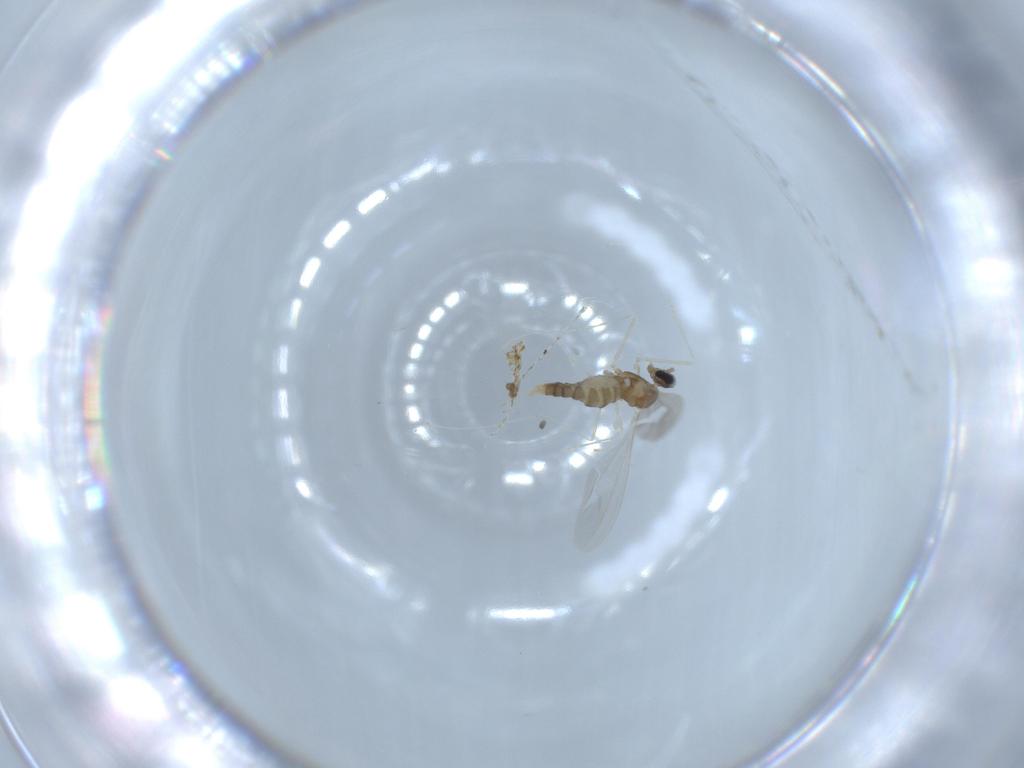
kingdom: Animalia
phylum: Arthropoda
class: Insecta
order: Diptera
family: Cecidomyiidae
